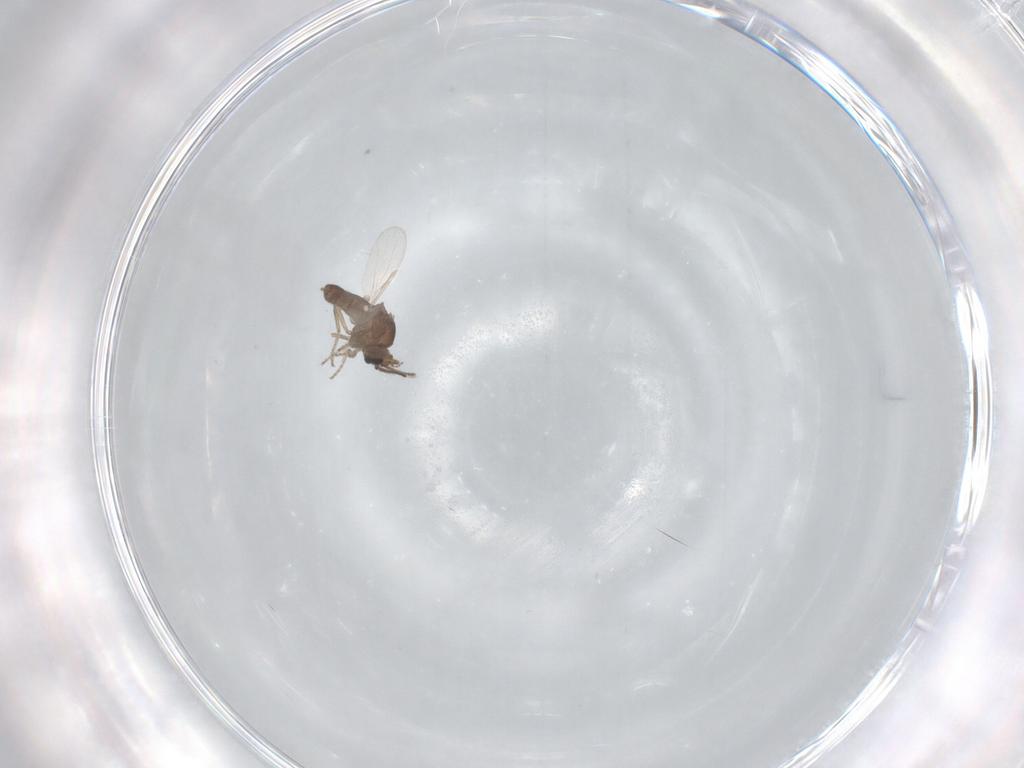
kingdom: Animalia
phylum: Arthropoda
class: Insecta
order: Diptera
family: Ceratopogonidae
